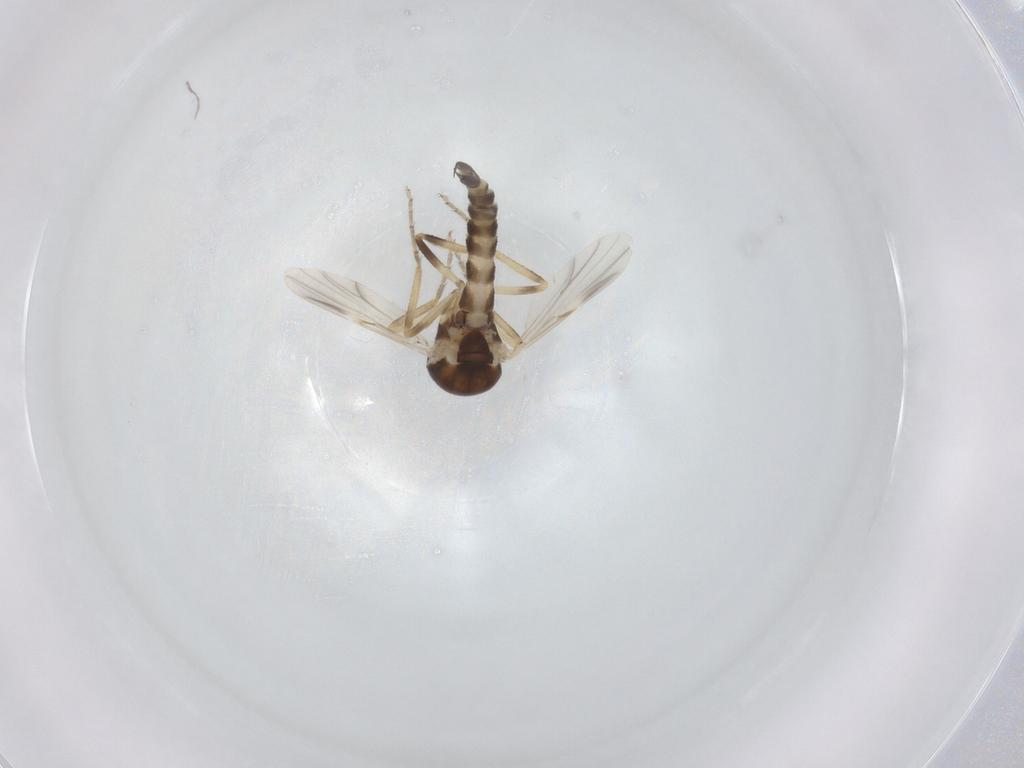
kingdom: Animalia
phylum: Arthropoda
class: Insecta
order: Diptera
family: Ceratopogonidae
